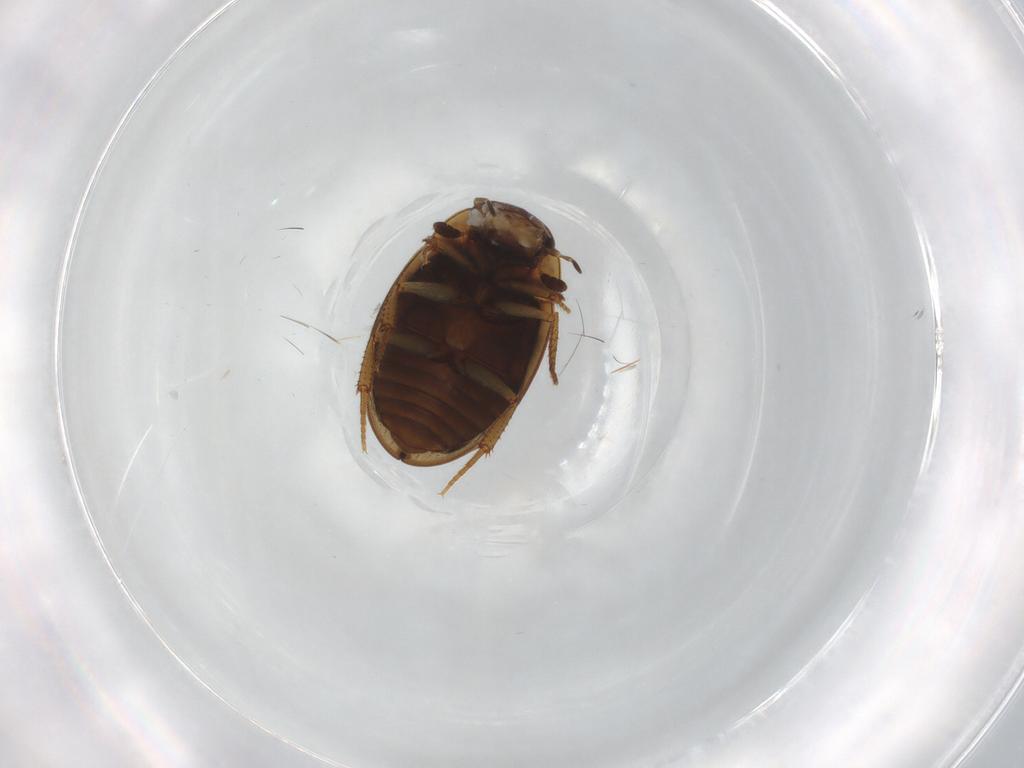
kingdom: Animalia
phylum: Arthropoda
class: Insecta
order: Coleoptera
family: Hydrophilidae
